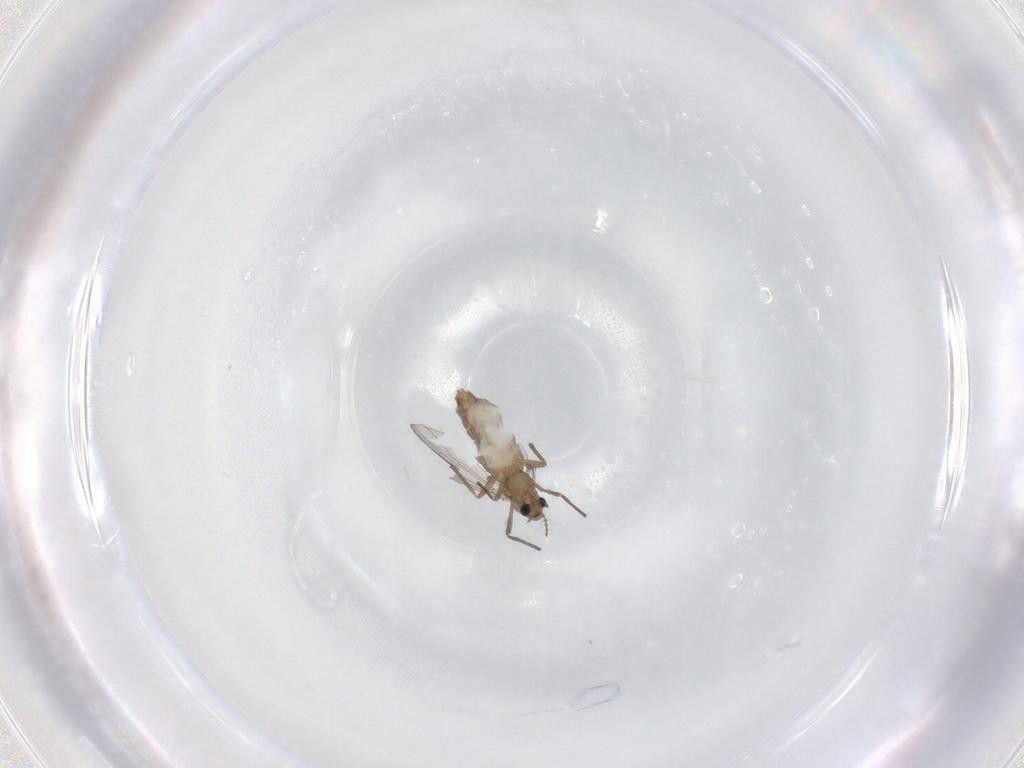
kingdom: Animalia
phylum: Arthropoda
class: Insecta
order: Diptera
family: Chironomidae
